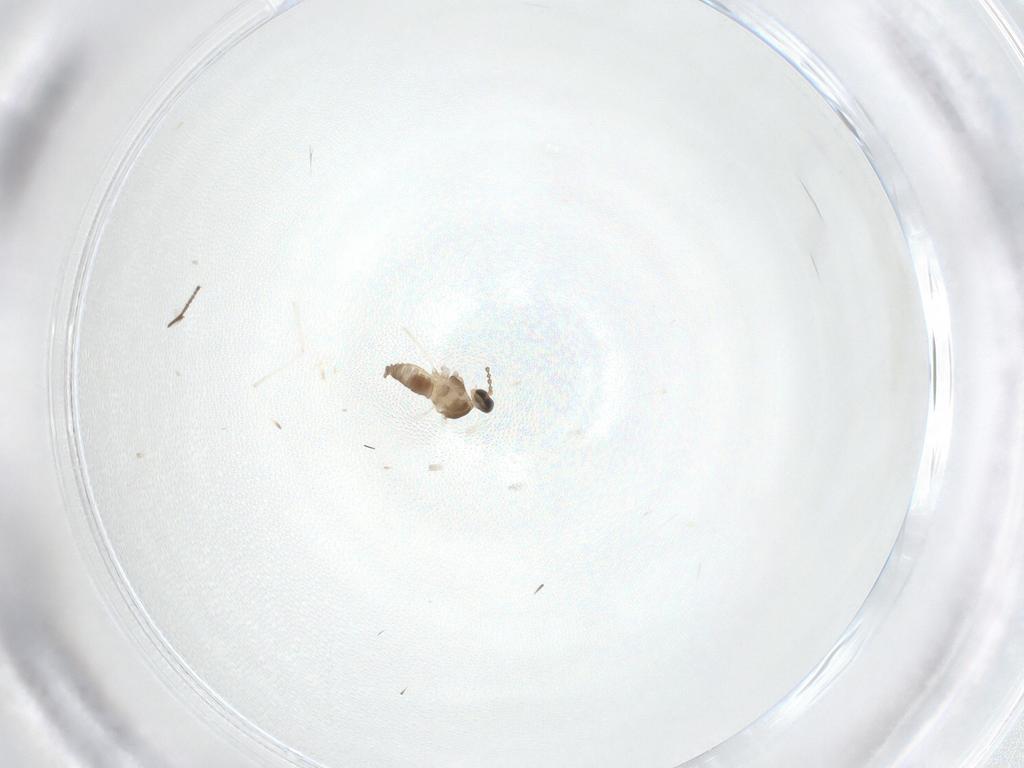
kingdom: Animalia
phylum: Arthropoda
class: Insecta
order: Diptera
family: Cecidomyiidae
